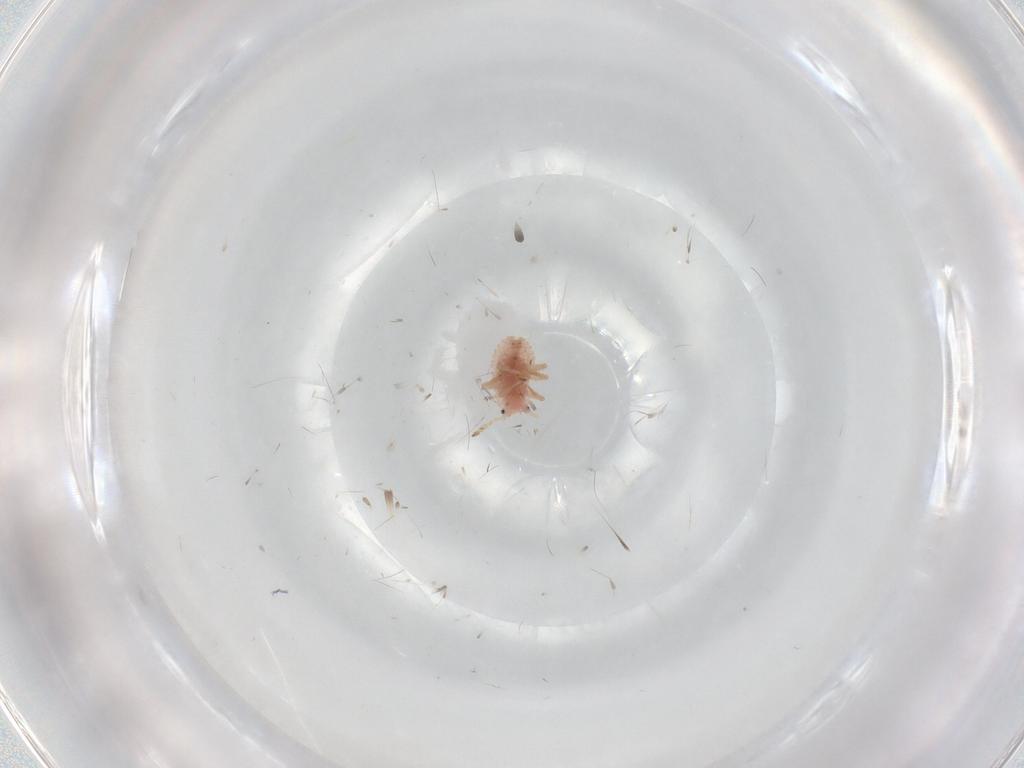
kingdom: Animalia
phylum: Arthropoda
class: Insecta
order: Hemiptera
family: Coccoidea_incertae_sedis
